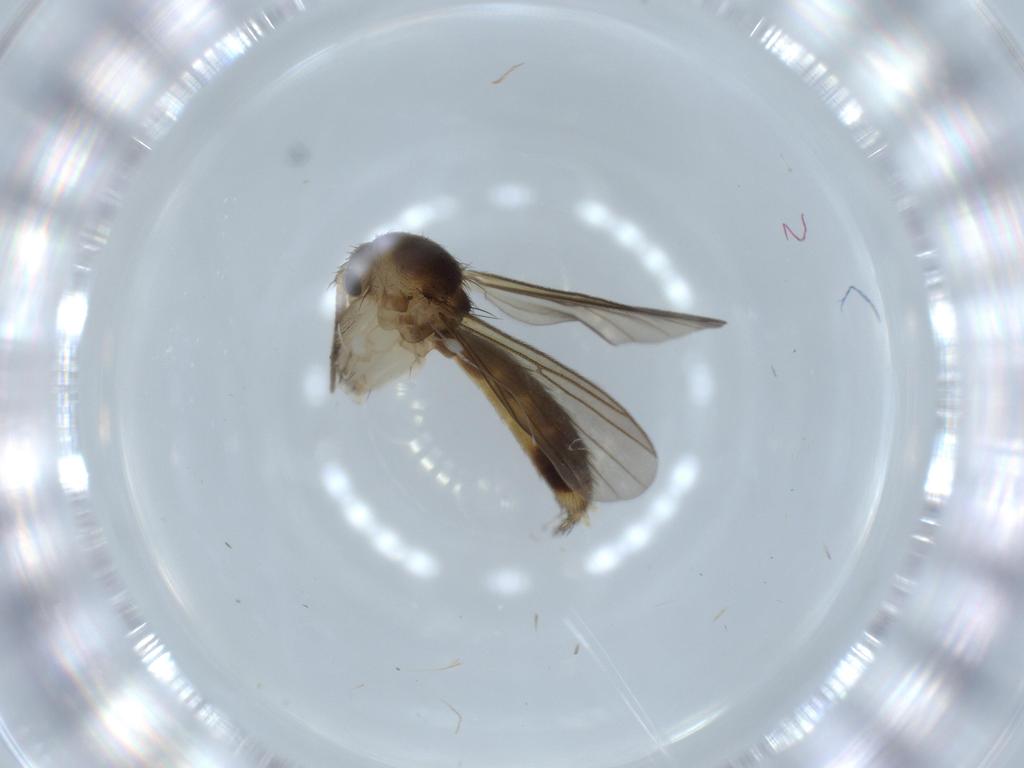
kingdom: Animalia
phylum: Arthropoda
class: Insecta
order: Diptera
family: Mycetophilidae
